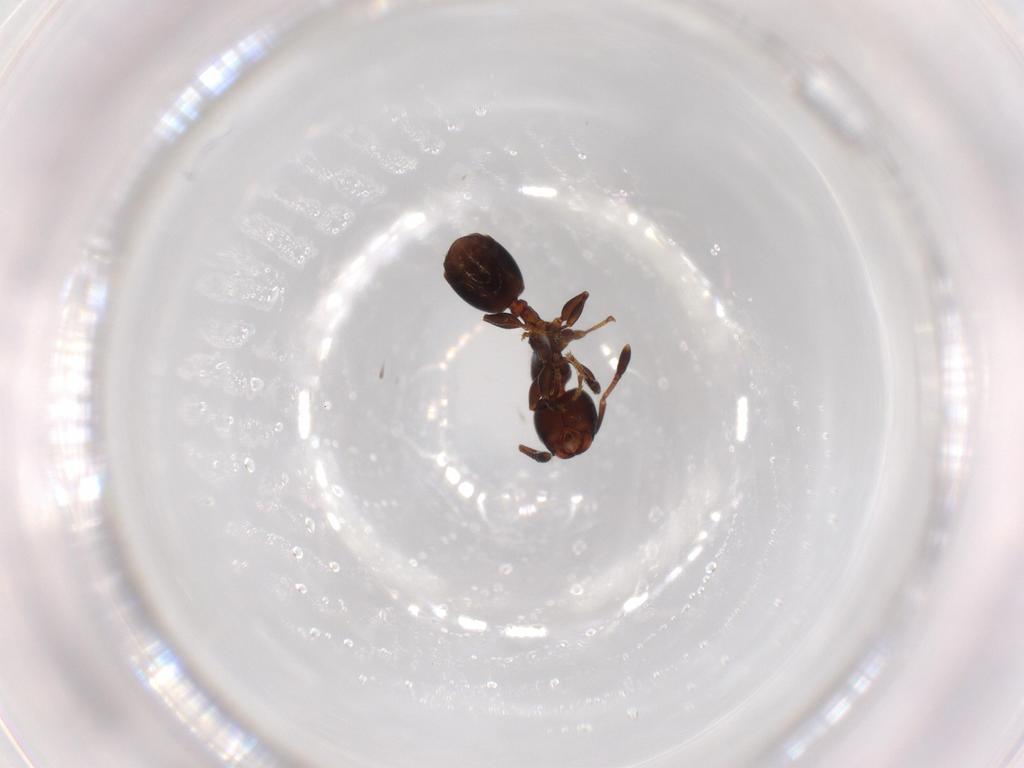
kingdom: Animalia
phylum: Arthropoda
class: Insecta
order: Hymenoptera
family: Formicidae
